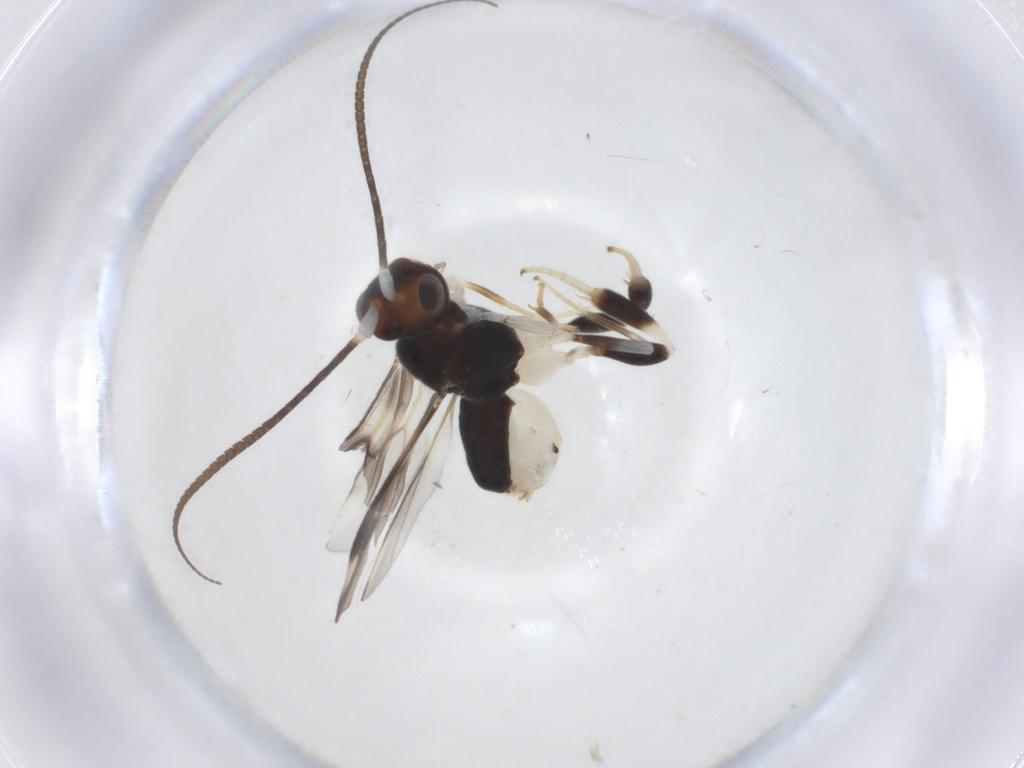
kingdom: Animalia
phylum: Arthropoda
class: Insecta
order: Hymenoptera
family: Braconidae
